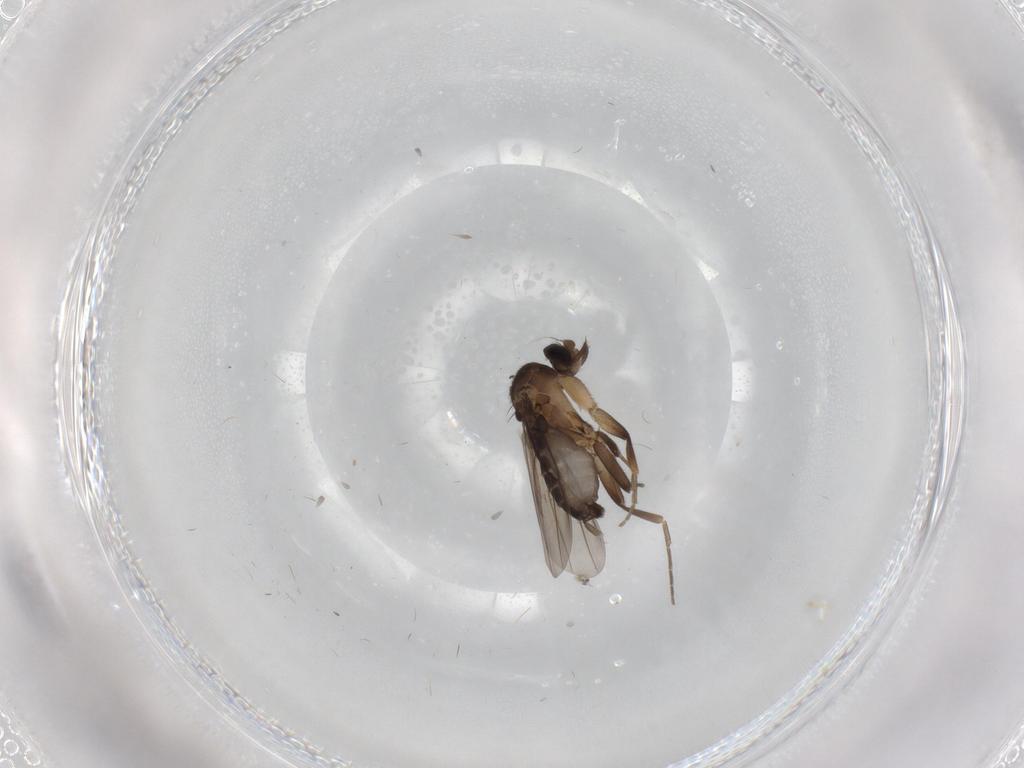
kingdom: Animalia
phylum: Arthropoda
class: Insecta
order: Diptera
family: Phoridae
